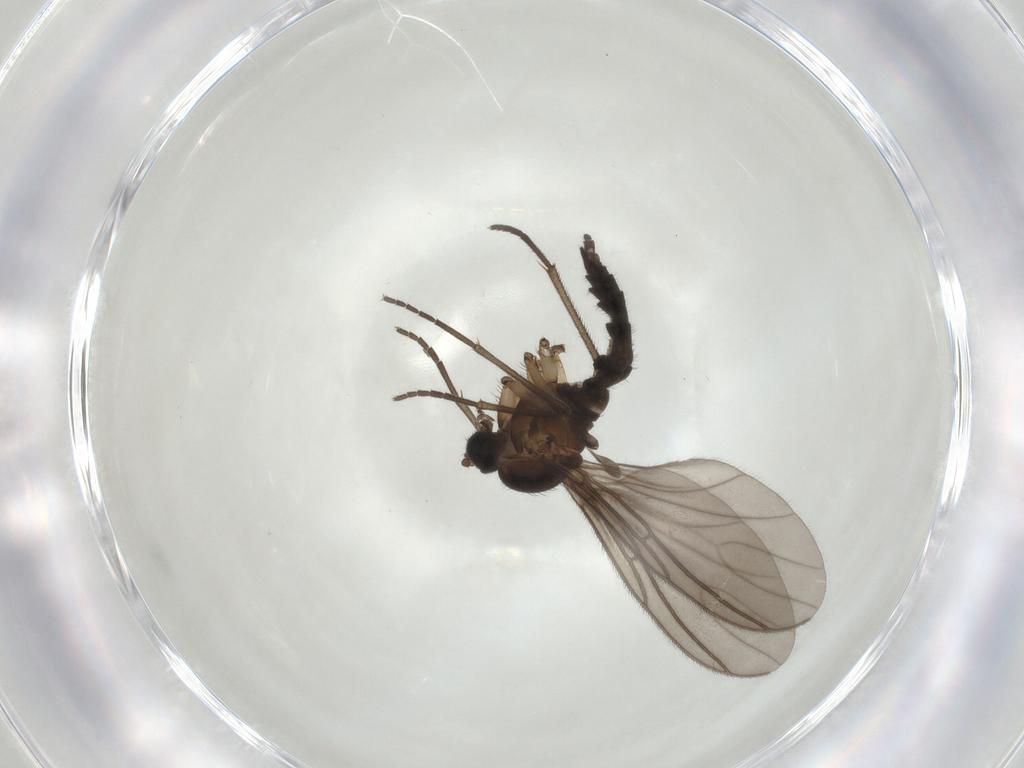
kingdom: Animalia
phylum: Arthropoda
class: Insecta
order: Diptera
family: Sciaridae
